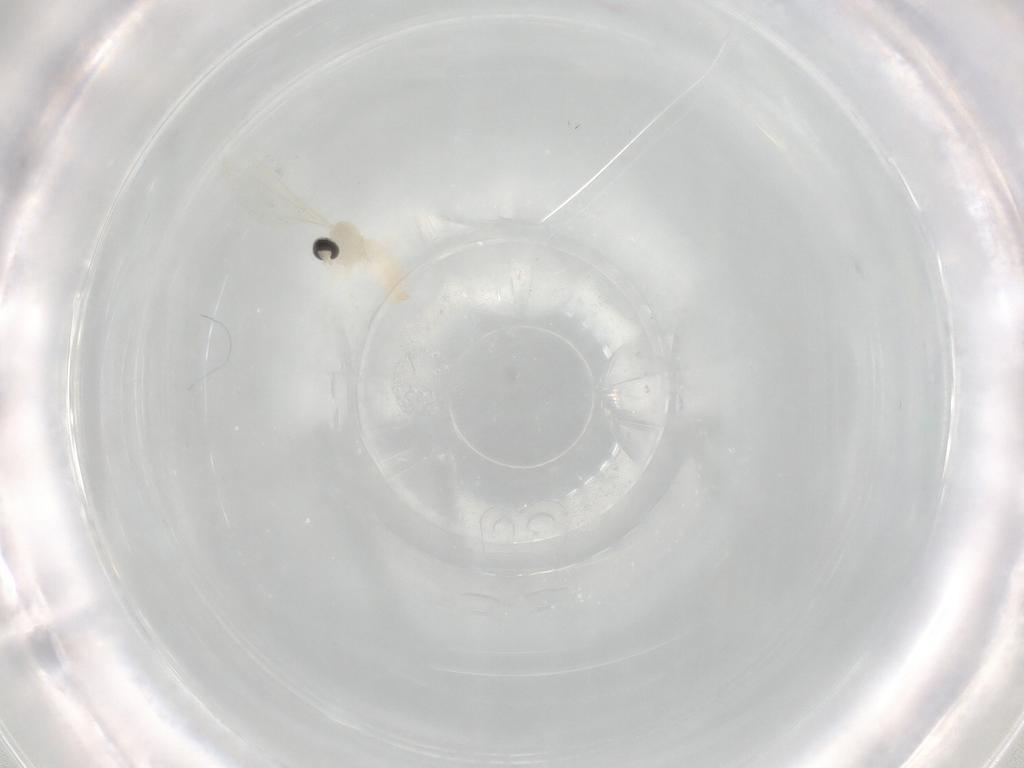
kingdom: Animalia
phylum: Arthropoda
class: Insecta
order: Diptera
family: Cecidomyiidae
